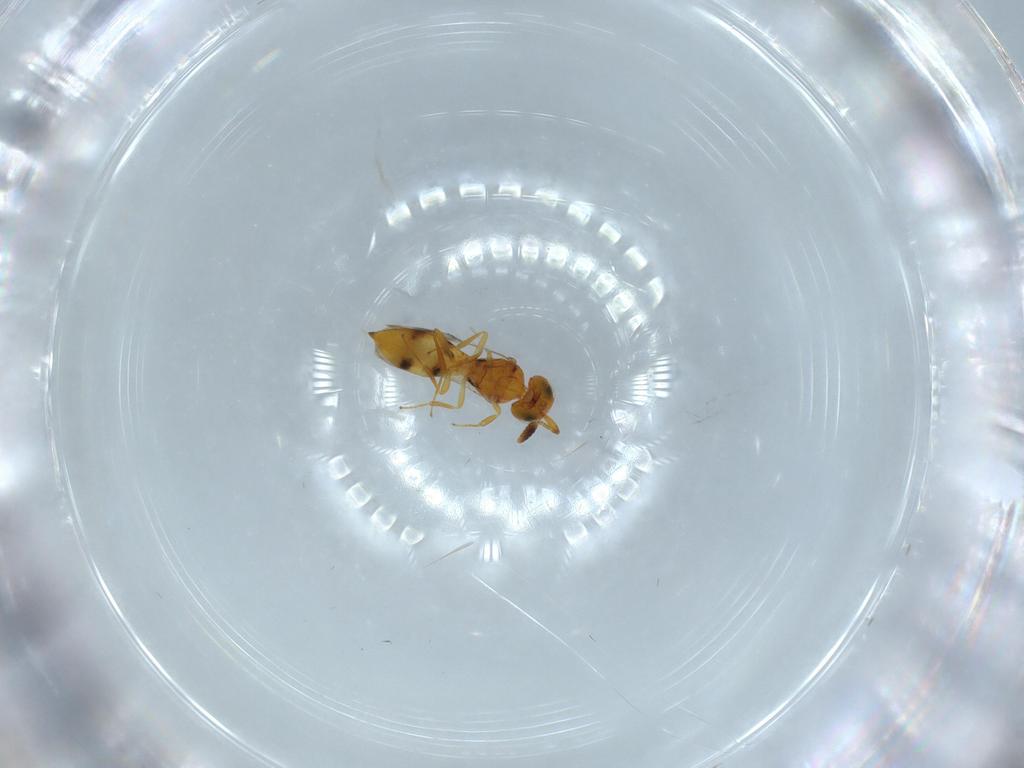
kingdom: Animalia
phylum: Arthropoda
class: Insecta
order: Hymenoptera
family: Scelionidae
